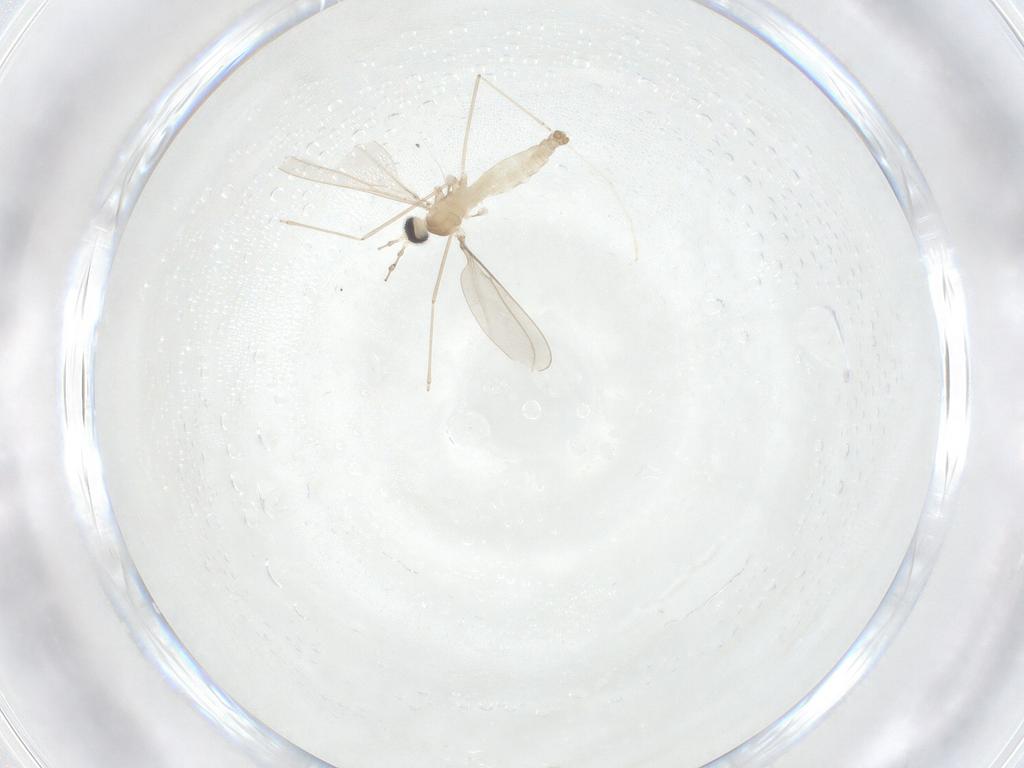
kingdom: Animalia
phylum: Arthropoda
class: Insecta
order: Diptera
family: Cecidomyiidae
